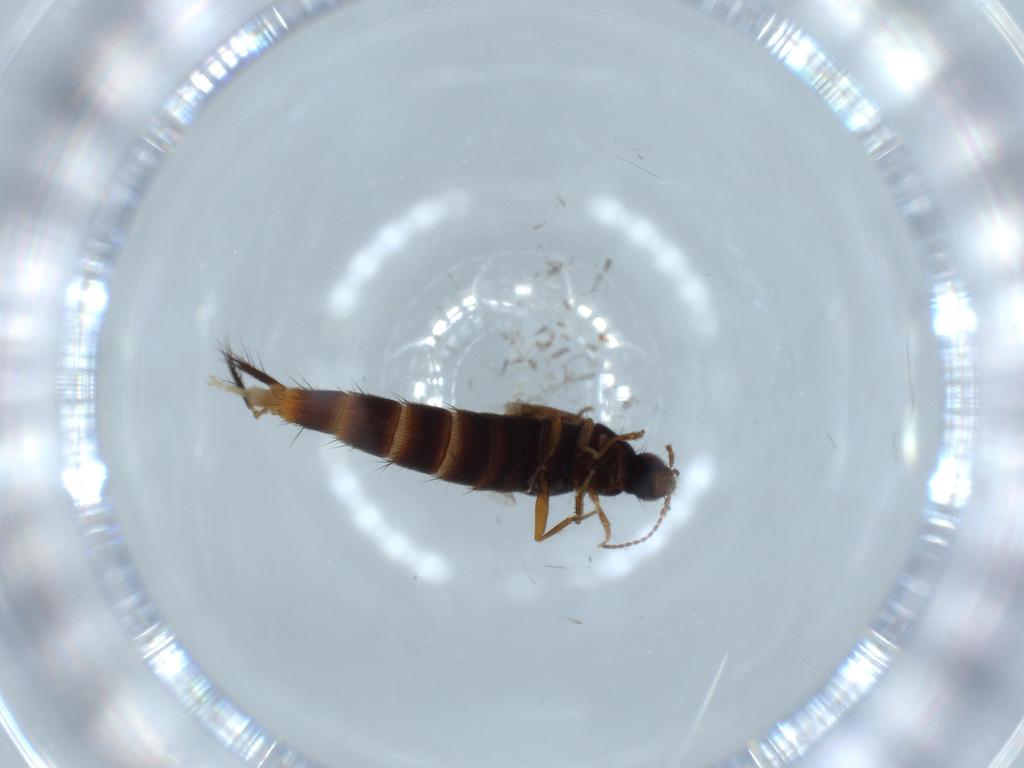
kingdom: Animalia
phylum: Arthropoda
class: Insecta
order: Coleoptera
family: Staphylinidae
